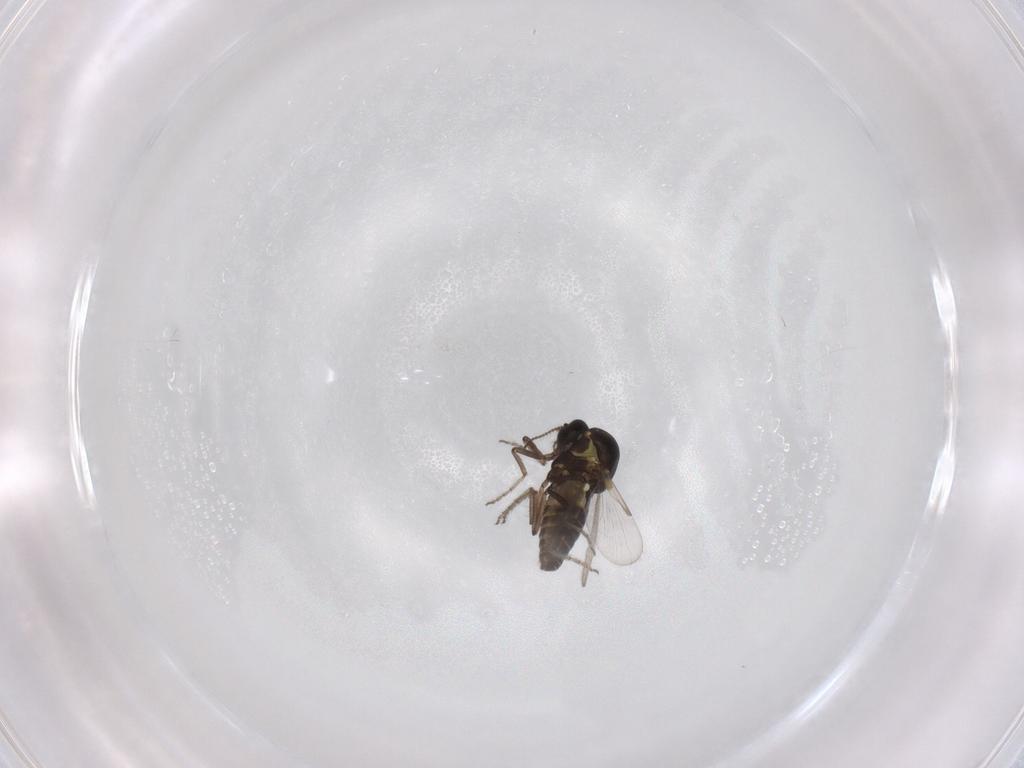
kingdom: Animalia
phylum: Arthropoda
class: Insecta
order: Diptera
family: Ceratopogonidae
